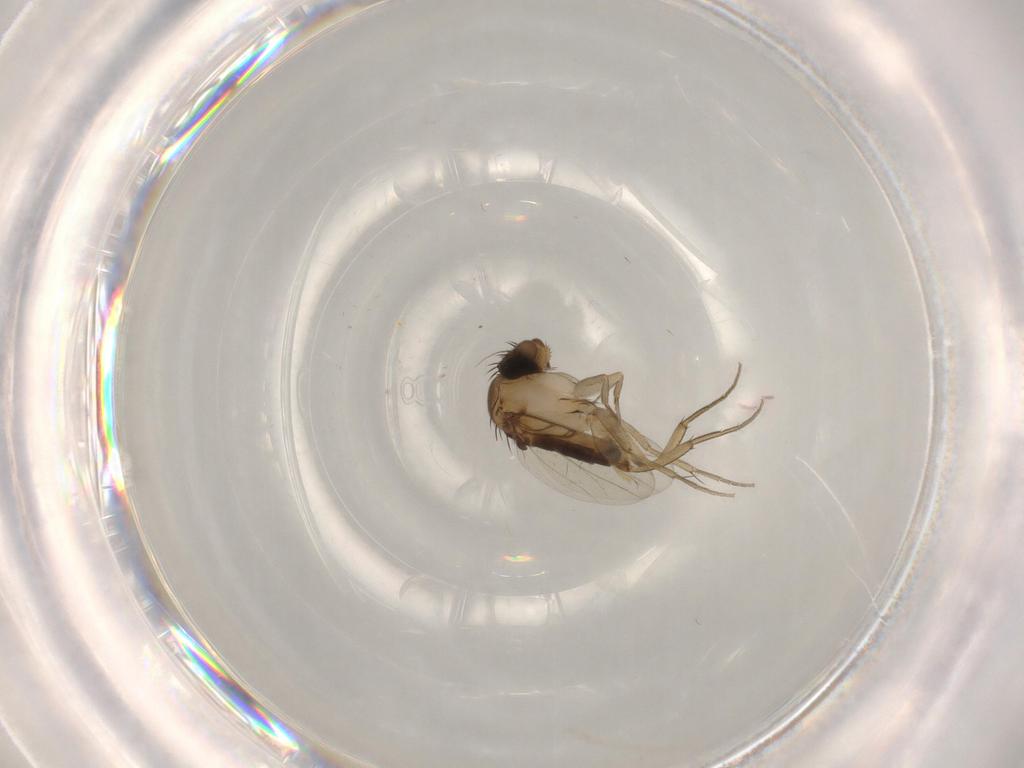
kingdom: Animalia
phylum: Arthropoda
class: Insecta
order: Diptera
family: Phoridae
